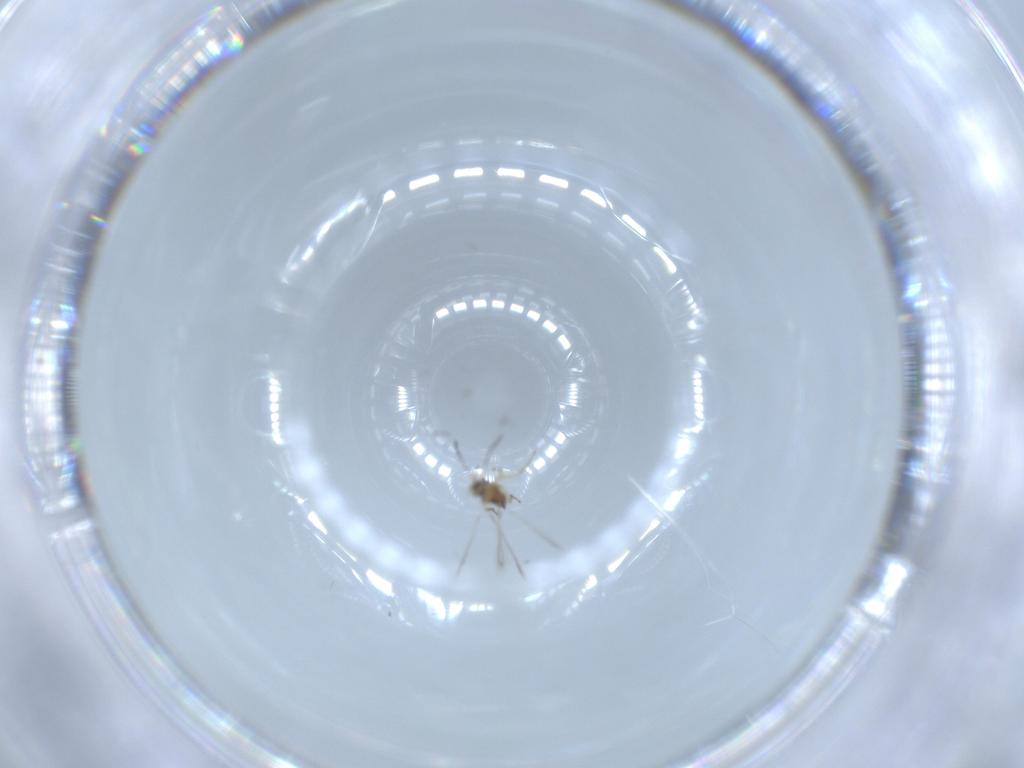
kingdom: Animalia
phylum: Arthropoda
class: Insecta
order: Hymenoptera
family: Mymaridae
